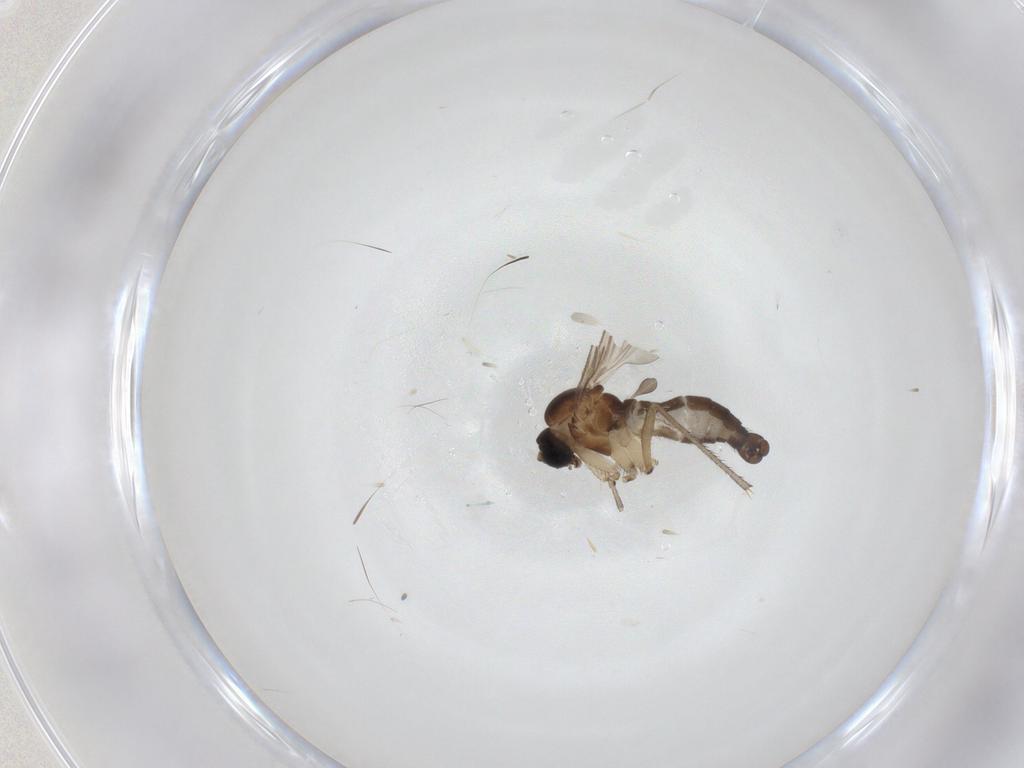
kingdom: Animalia
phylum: Arthropoda
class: Insecta
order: Diptera
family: Sciaridae
